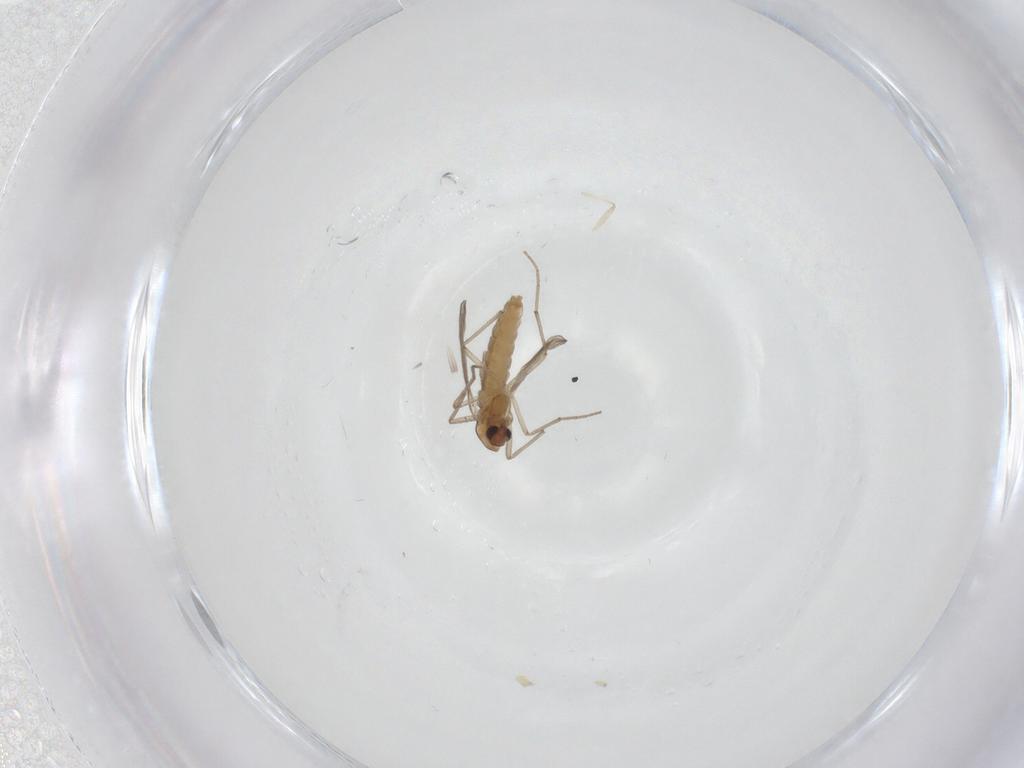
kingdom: Animalia
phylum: Arthropoda
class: Insecta
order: Diptera
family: Chironomidae
